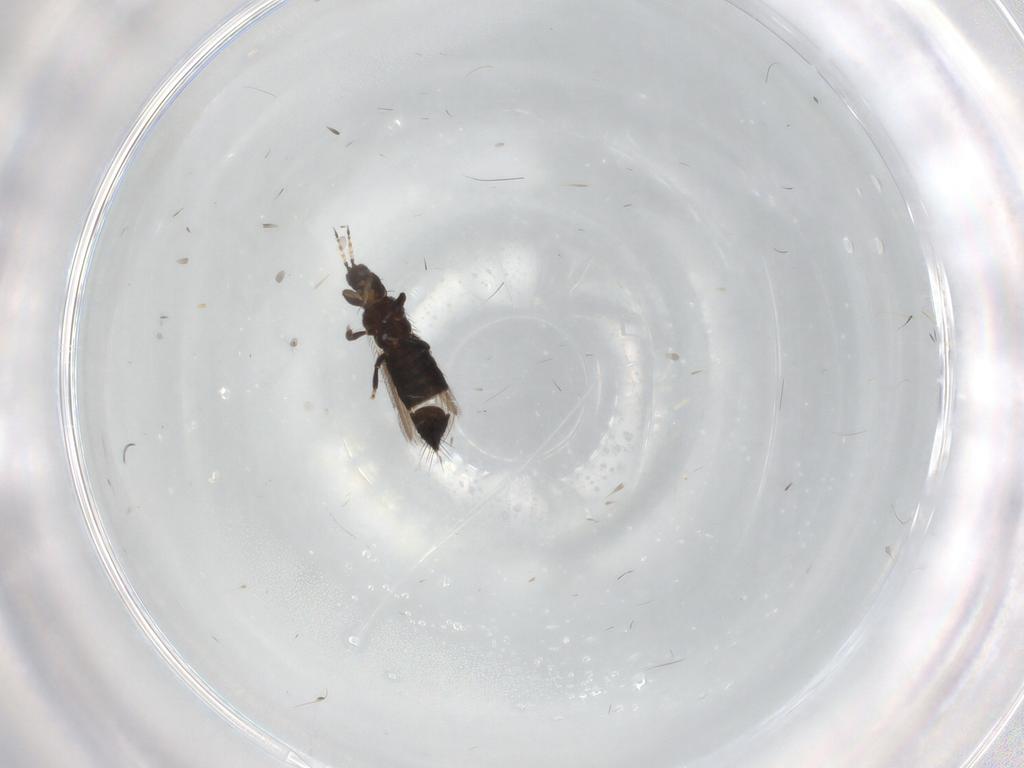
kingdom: Animalia
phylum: Arthropoda
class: Insecta
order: Thysanoptera
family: Thripidae
